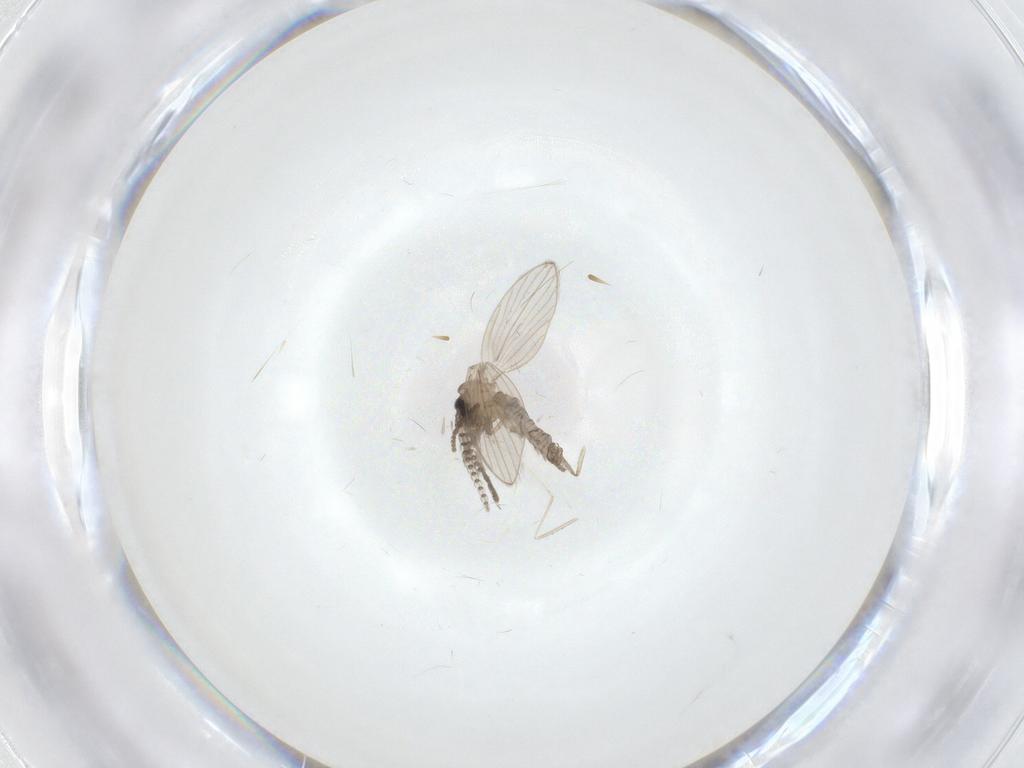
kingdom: Animalia
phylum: Arthropoda
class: Insecta
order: Diptera
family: Psychodidae
